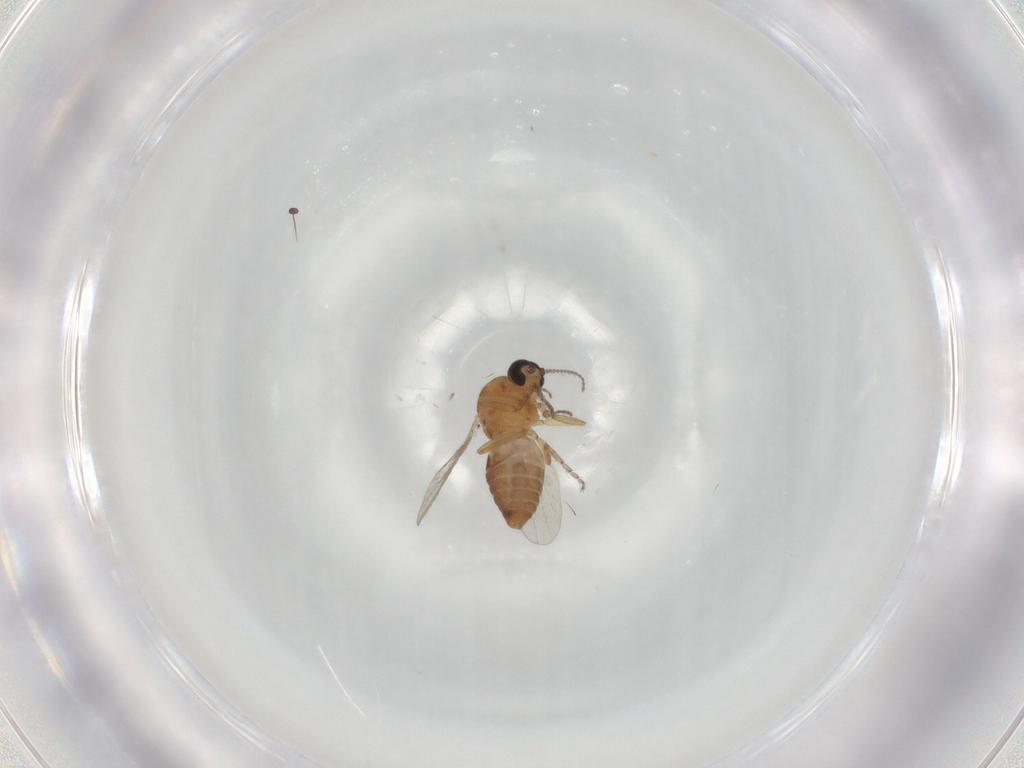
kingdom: Animalia
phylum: Arthropoda
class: Insecta
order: Diptera
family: Ceratopogonidae
